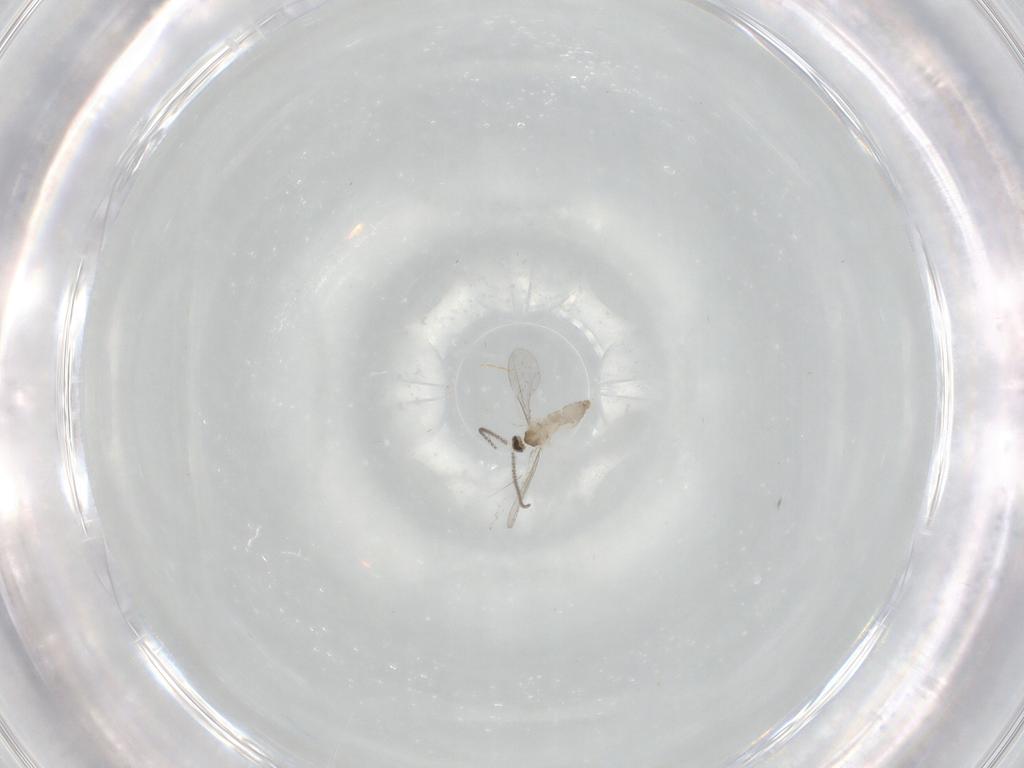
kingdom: Animalia
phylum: Arthropoda
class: Insecta
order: Diptera
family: Cecidomyiidae
